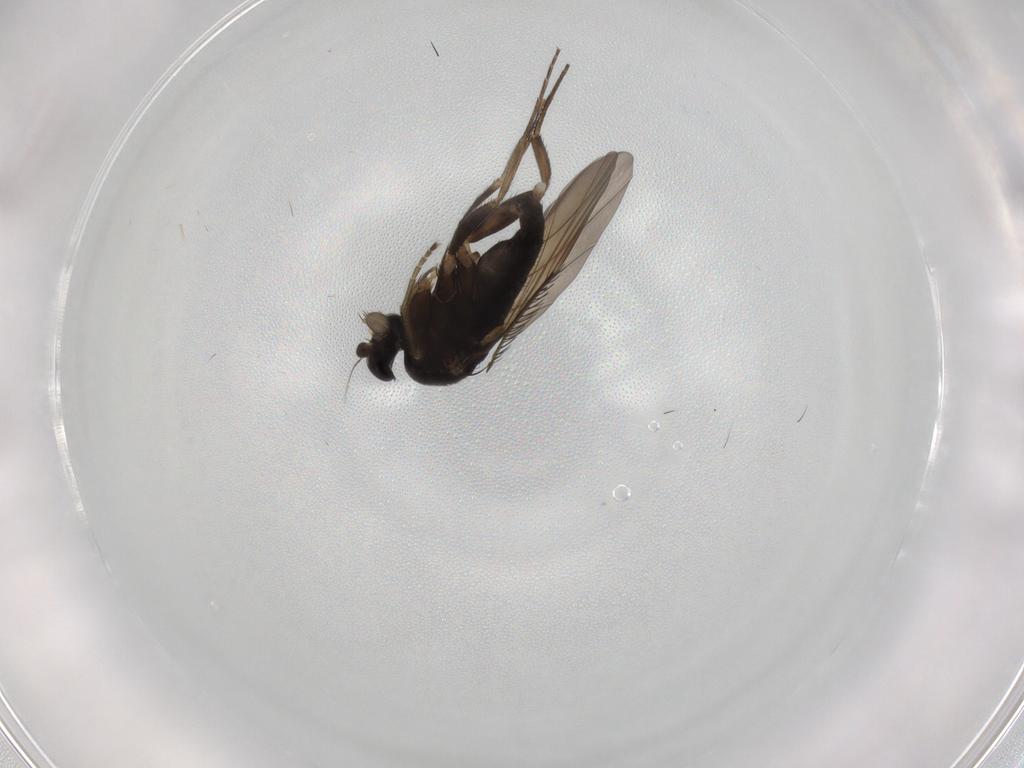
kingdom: Animalia
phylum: Arthropoda
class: Insecta
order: Diptera
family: Phoridae
